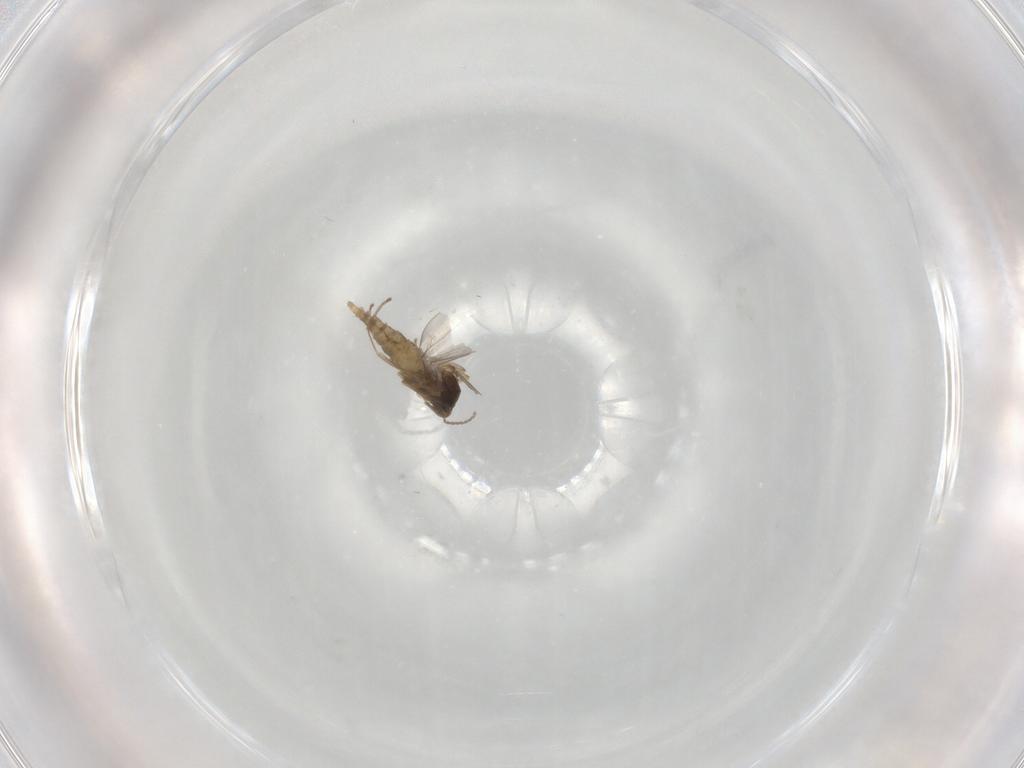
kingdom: Animalia
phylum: Arthropoda
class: Insecta
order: Diptera
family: Cecidomyiidae
